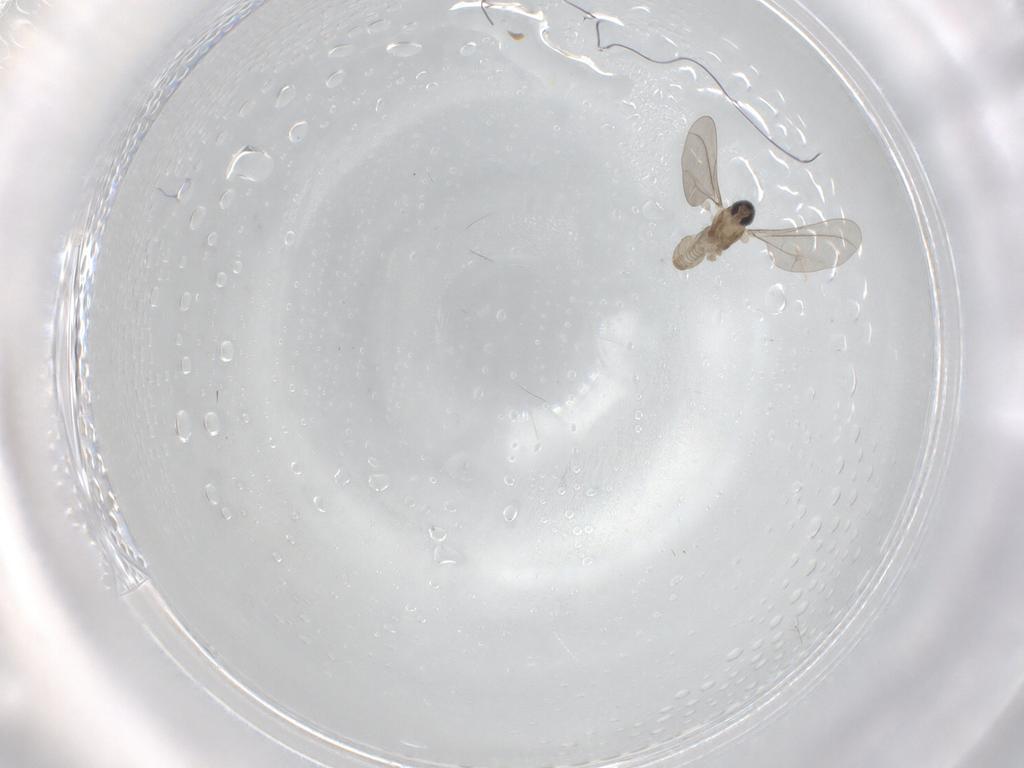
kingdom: Animalia
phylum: Arthropoda
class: Insecta
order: Diptera
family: Cecidomyiidae
